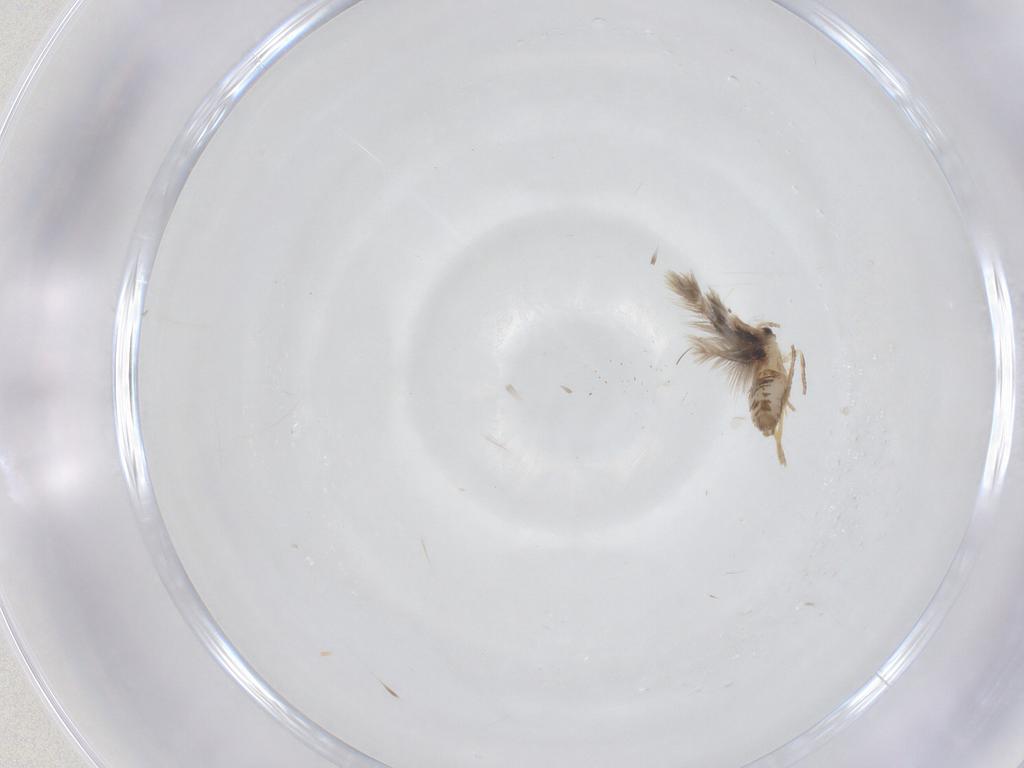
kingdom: Animalia
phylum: Arthropoda
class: Insecta
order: Lepidoptera
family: Nepticulidae
